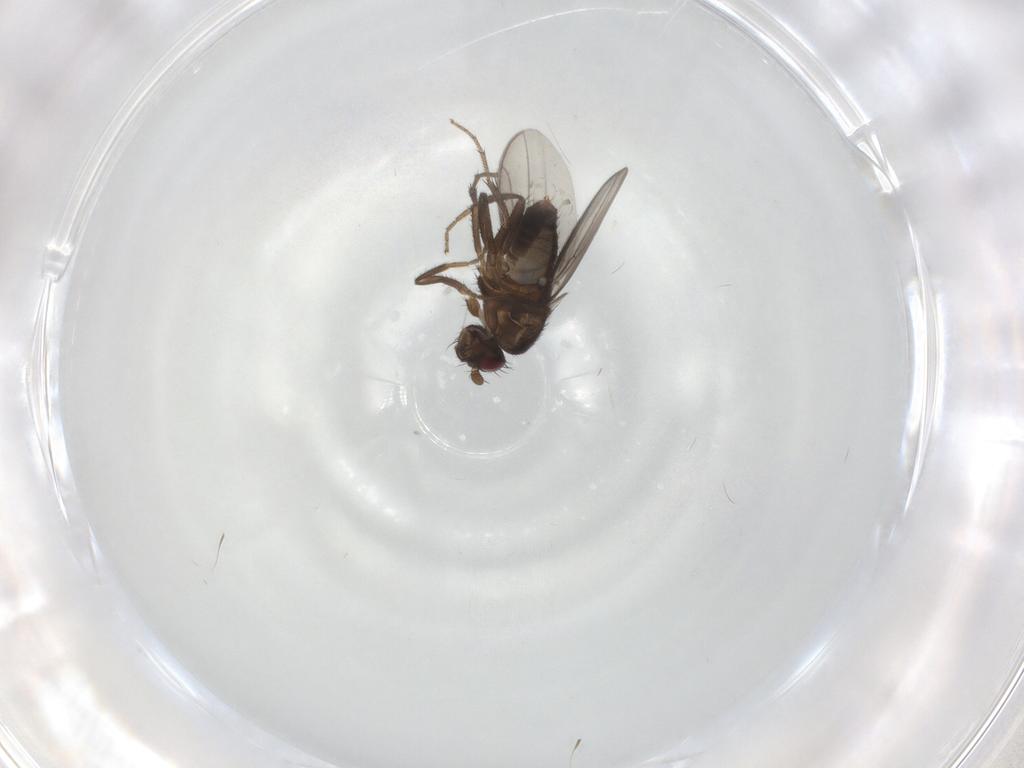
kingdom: Animalia
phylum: Arthropoda
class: Insecta
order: Diptera
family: Sphaeroceridae
